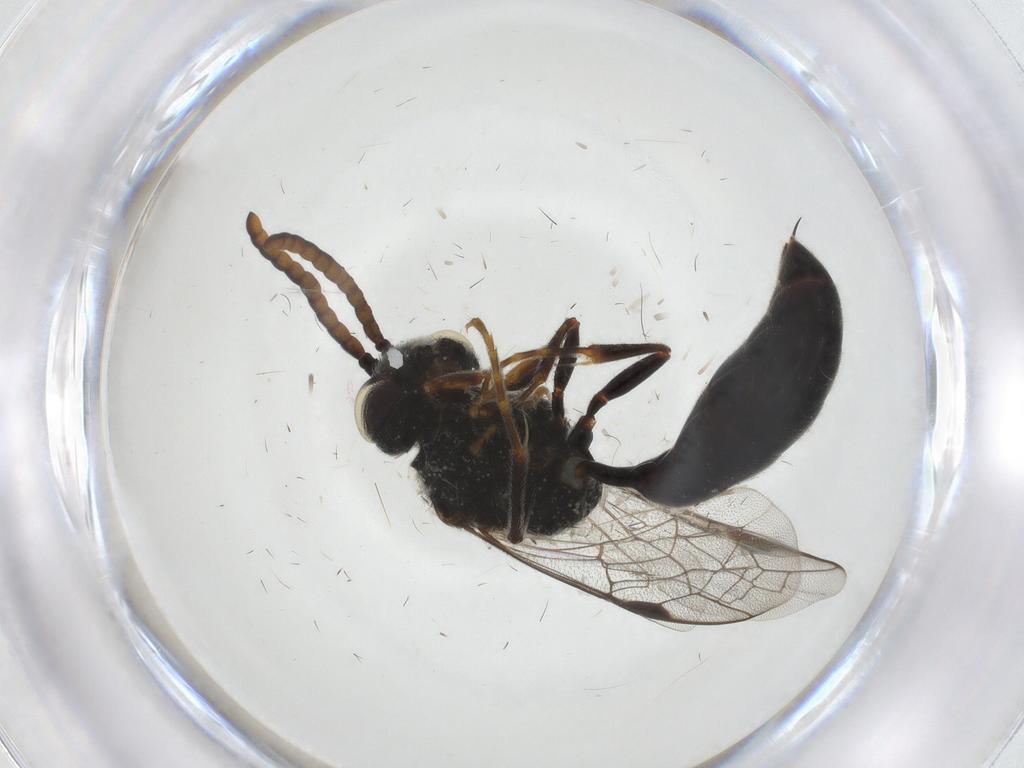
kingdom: Animalia
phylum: Arthropoda
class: Insecta
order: Hymenoptera
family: Psenidae
